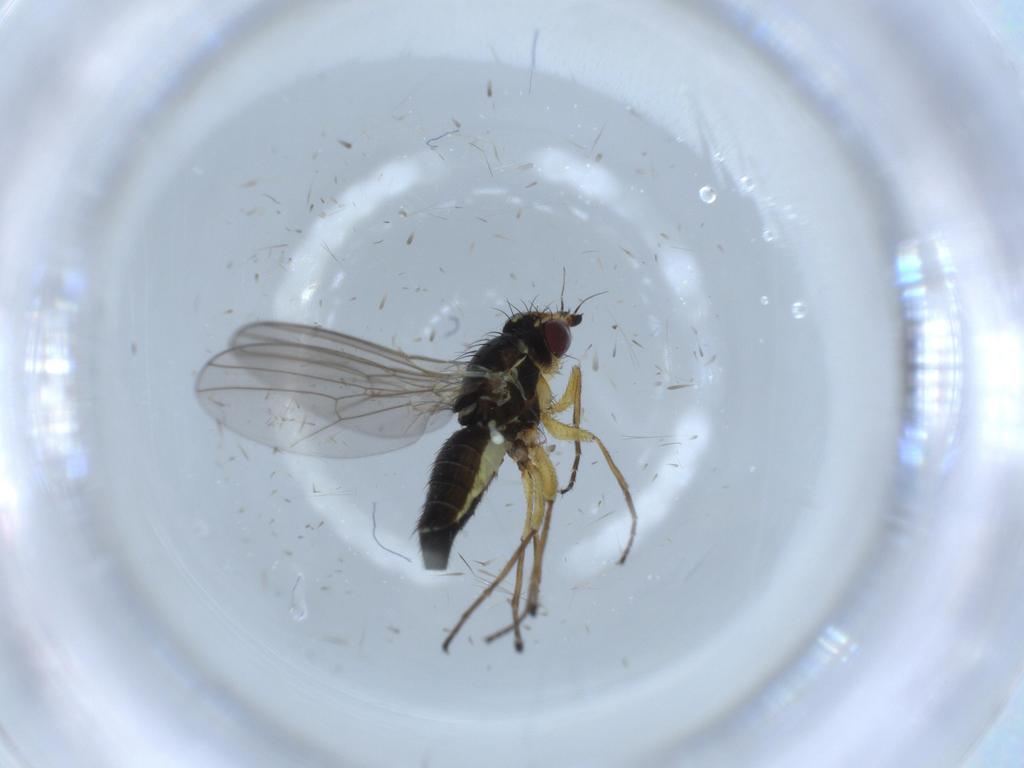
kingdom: Animalia
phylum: Arthropoda
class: Insecta
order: Diptera
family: Agromyzidae
